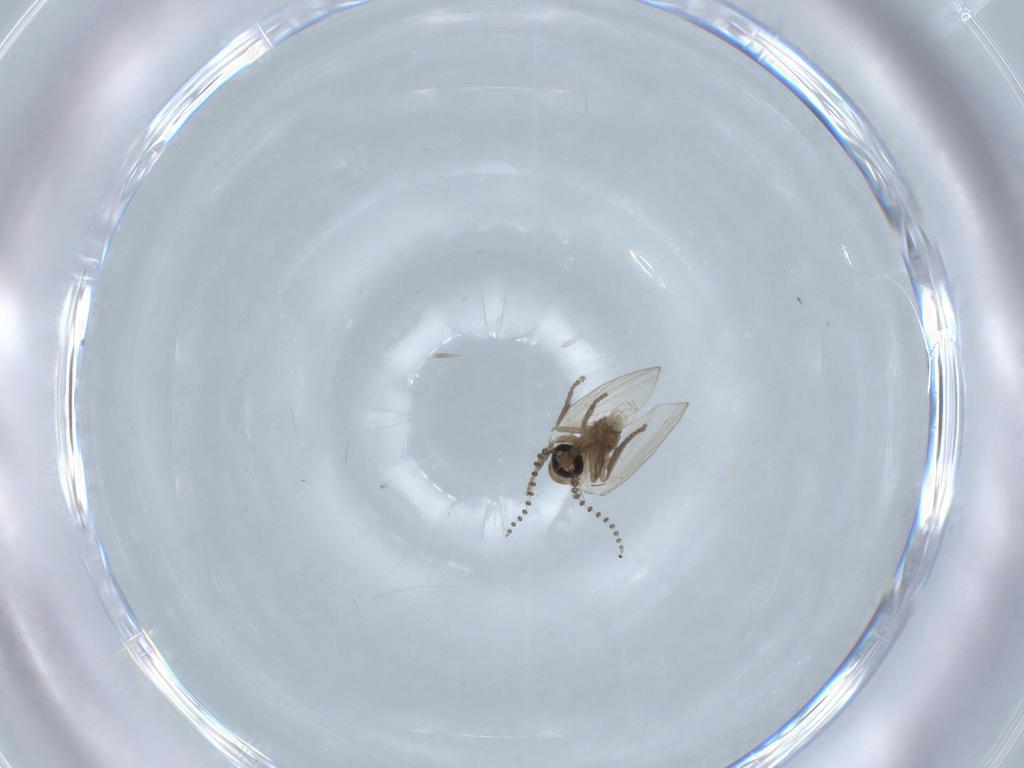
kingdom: Animalia
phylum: Arthropoda
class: Insecta
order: Diptera
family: Psychodidae
